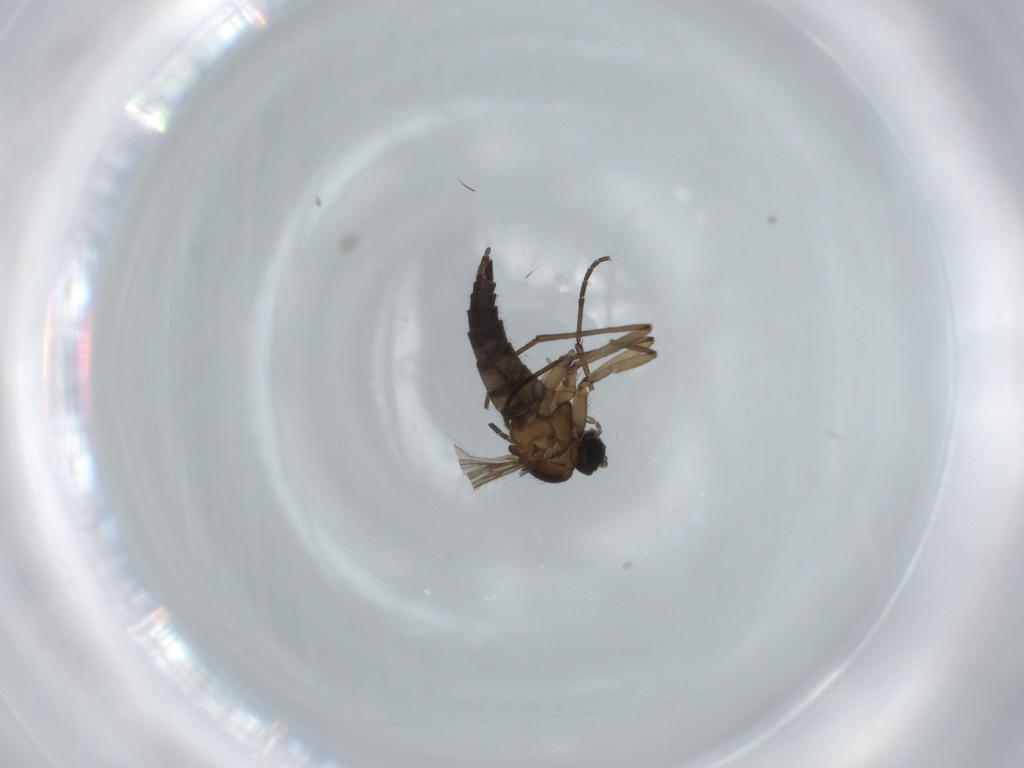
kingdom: Animalia
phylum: Arthropoda
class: Insecta
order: Diptera
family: Sciaridae
